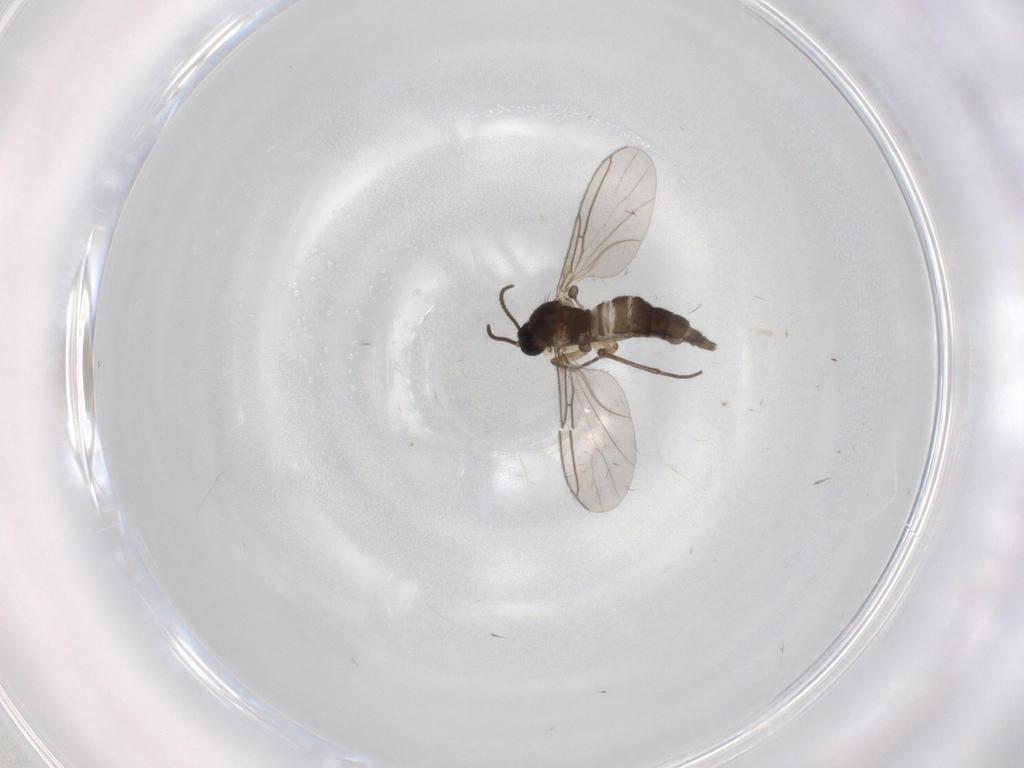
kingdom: Animalia
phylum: Arthropoda
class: Insecta
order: Diptera
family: Sciaridae
